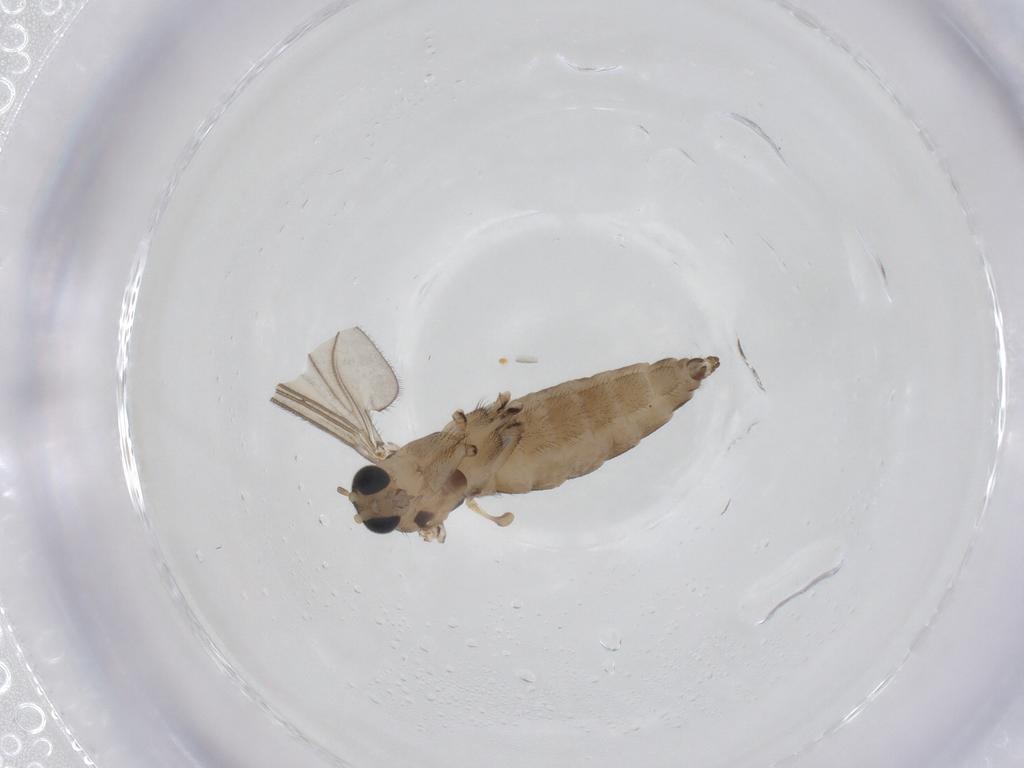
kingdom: Animalia
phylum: Arthropoda
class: Insecta
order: Diptera
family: Sciaridae
